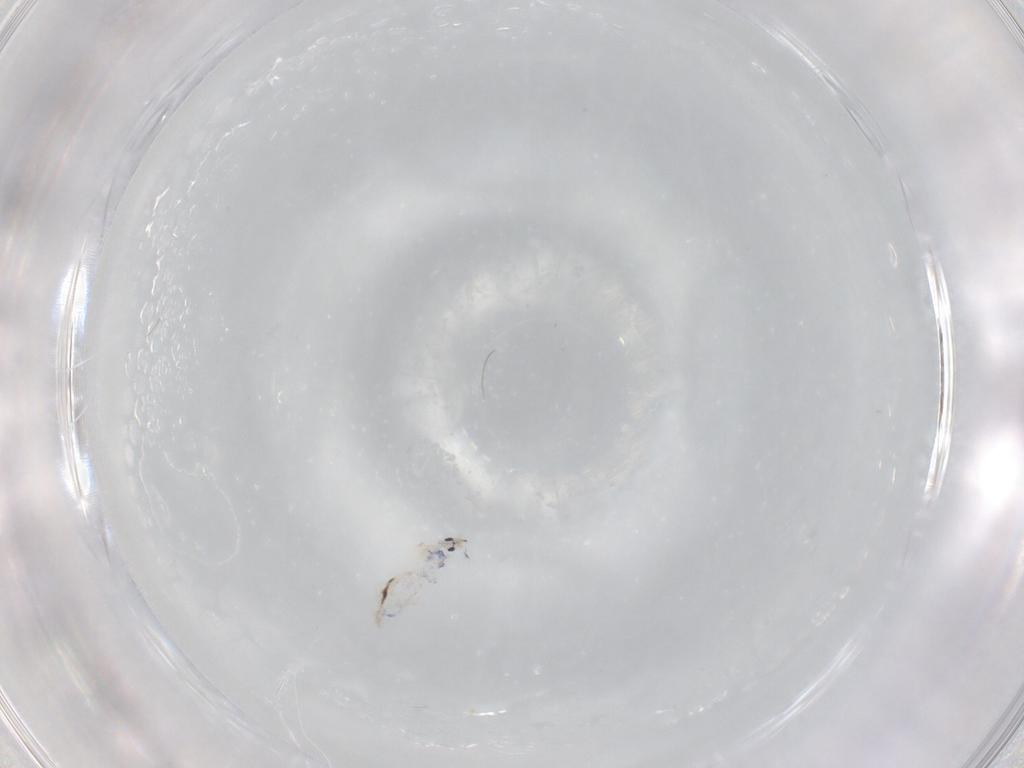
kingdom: Animalia
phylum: Arthropoda
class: Collembola
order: Entomobryomorpha
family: Entomobryidae
